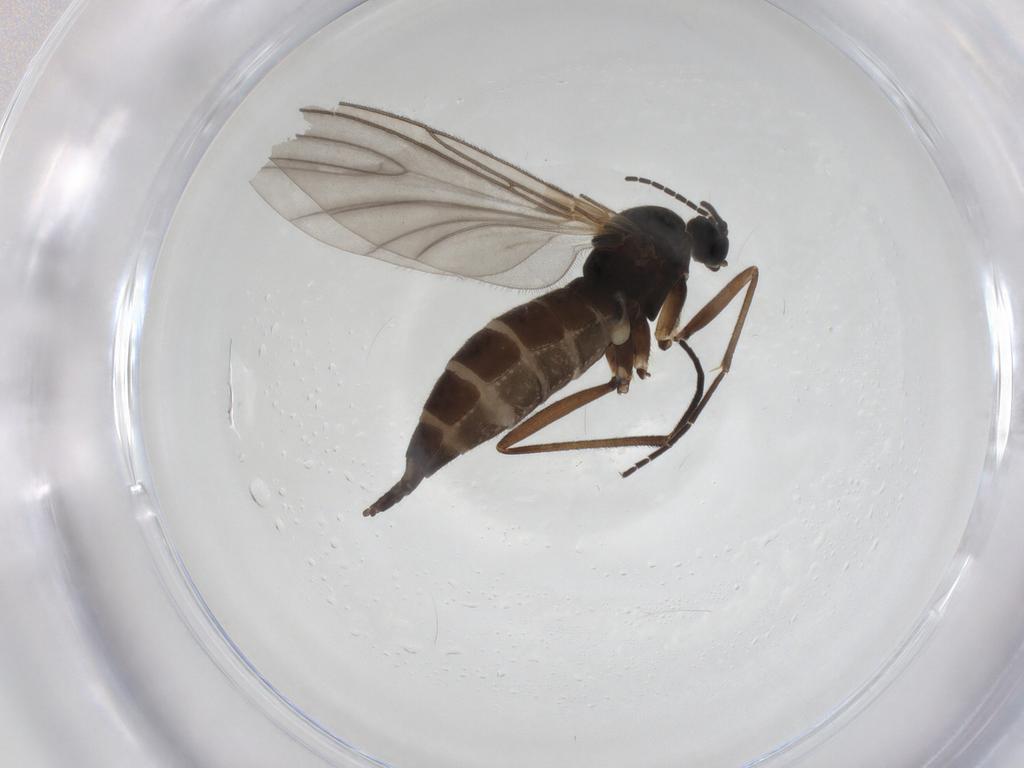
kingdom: Animalia
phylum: Arthropoda
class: Insecta
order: Diptera
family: Sciaridae
